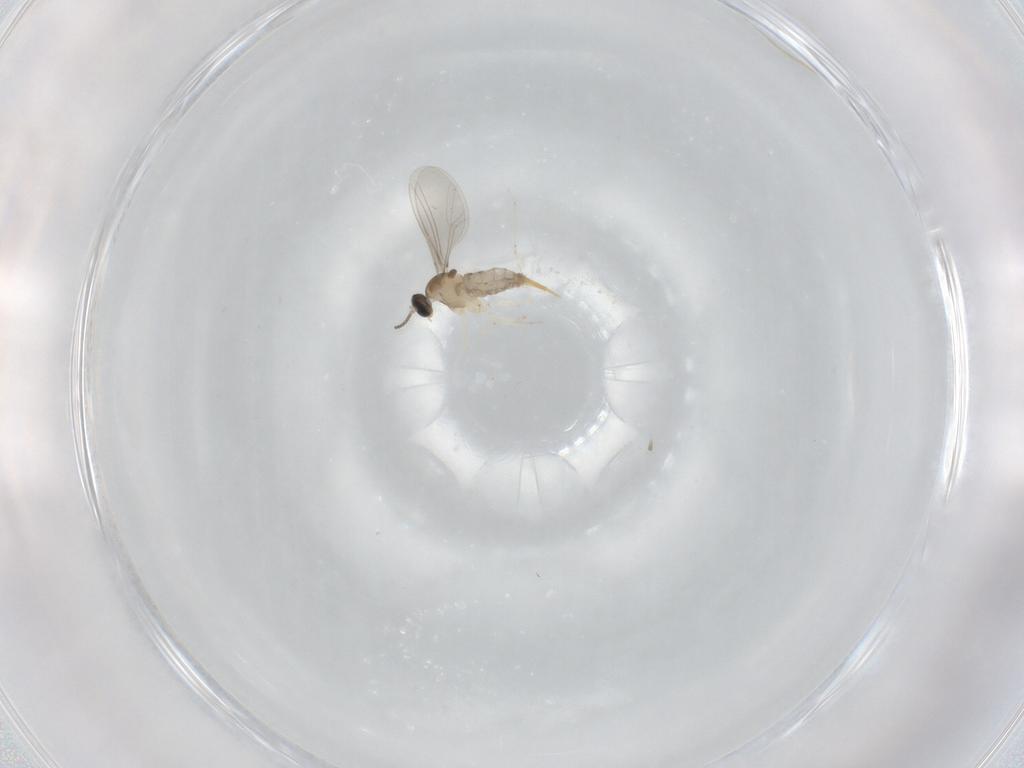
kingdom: Animalia
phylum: Arthropoda
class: Insecta
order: Diptera
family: Cecidomyiidae
